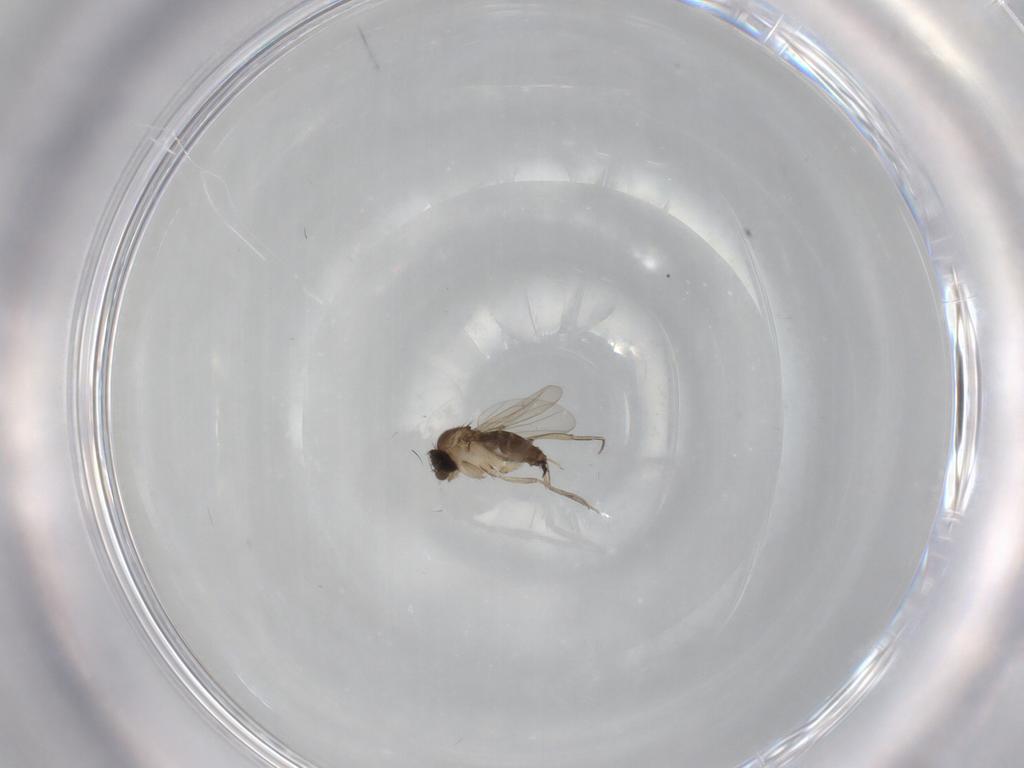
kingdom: Animalia
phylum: Arthropoda
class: Insecta
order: Diptera
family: Phoridae
